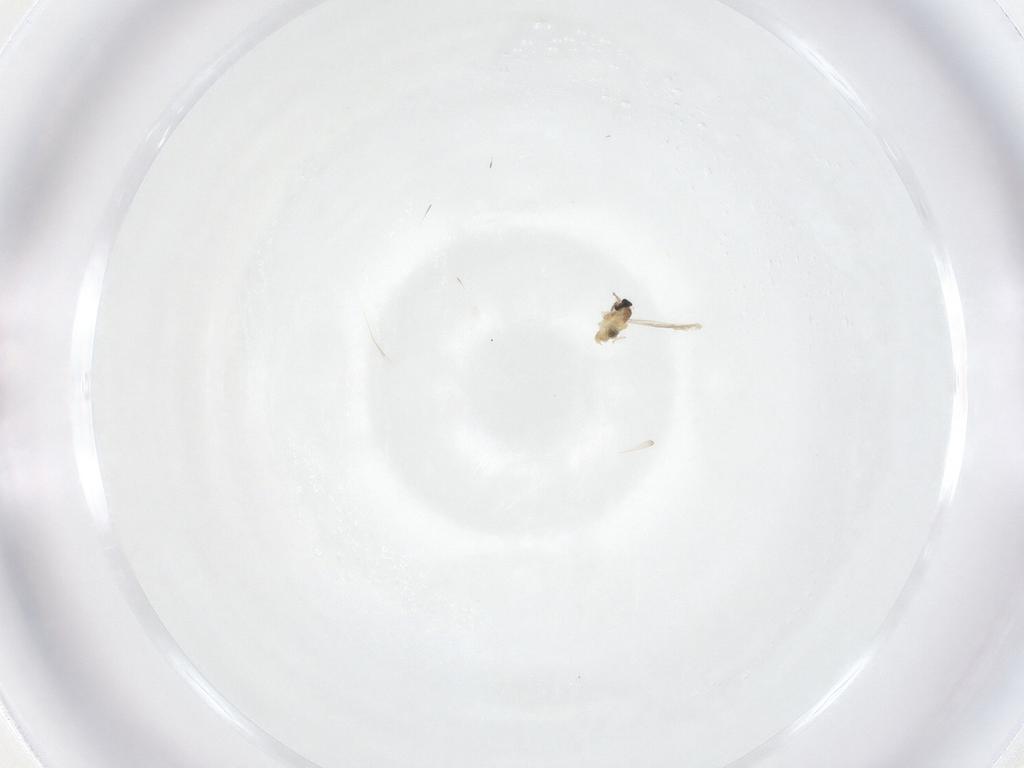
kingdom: Animalia
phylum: Arthropoda
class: Insecta
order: Diptera
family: Cecidomyiidae
